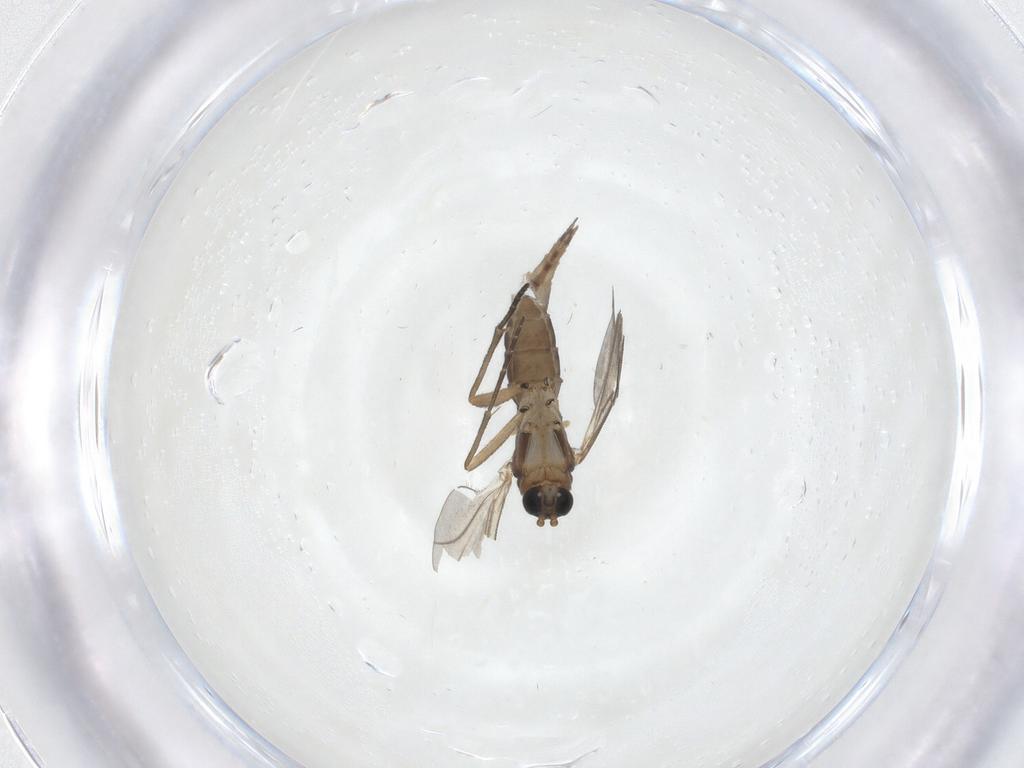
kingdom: Animalia
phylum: Arthropoda
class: Insecta
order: Diptera
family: Sciaridae
